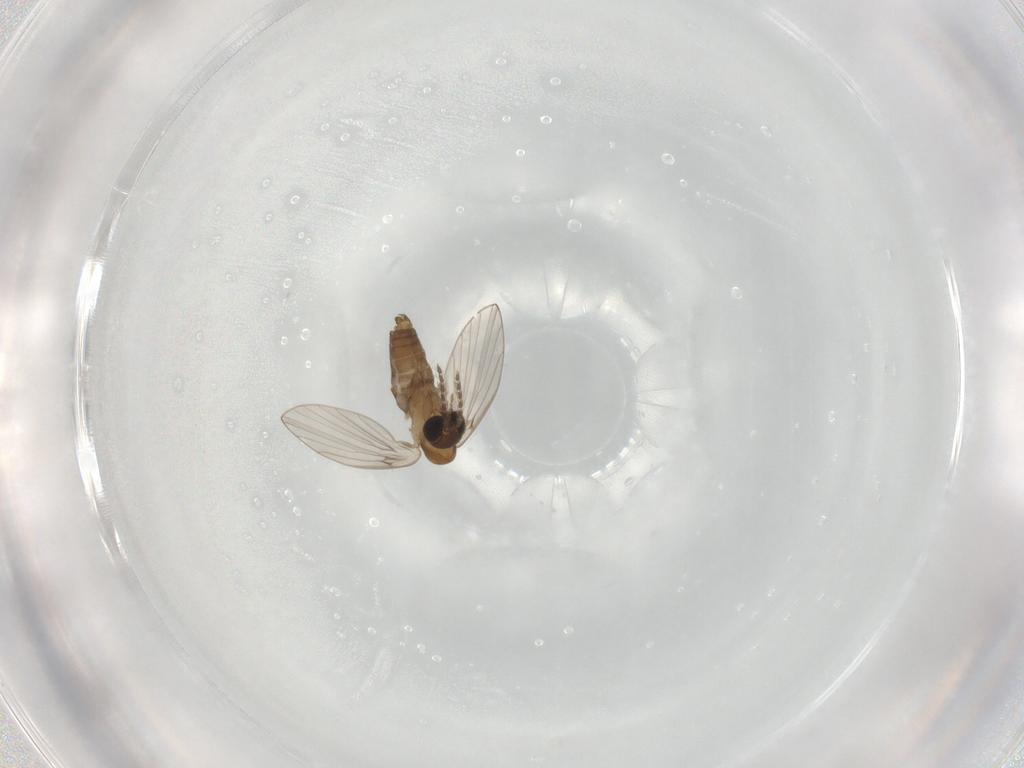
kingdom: Animalia
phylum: Arthropoda
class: Insecta
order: Diptera
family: Psychodidae
